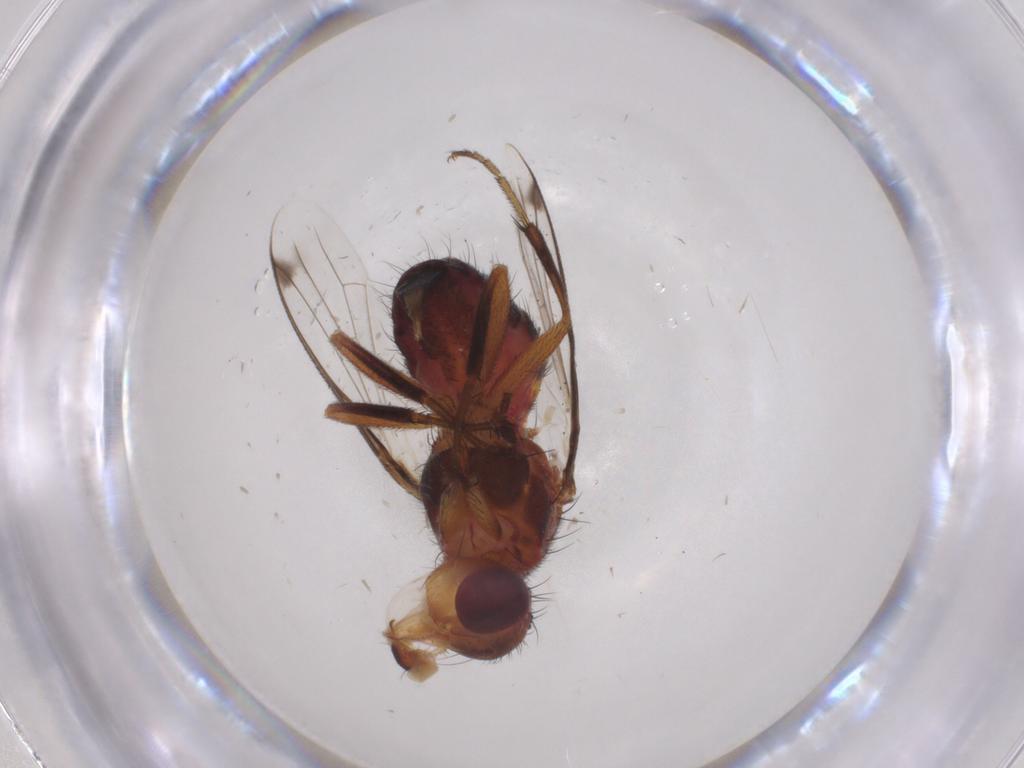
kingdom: Animalia
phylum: Arthropoda
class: Insecta
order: Diptera
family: Richardiidae
